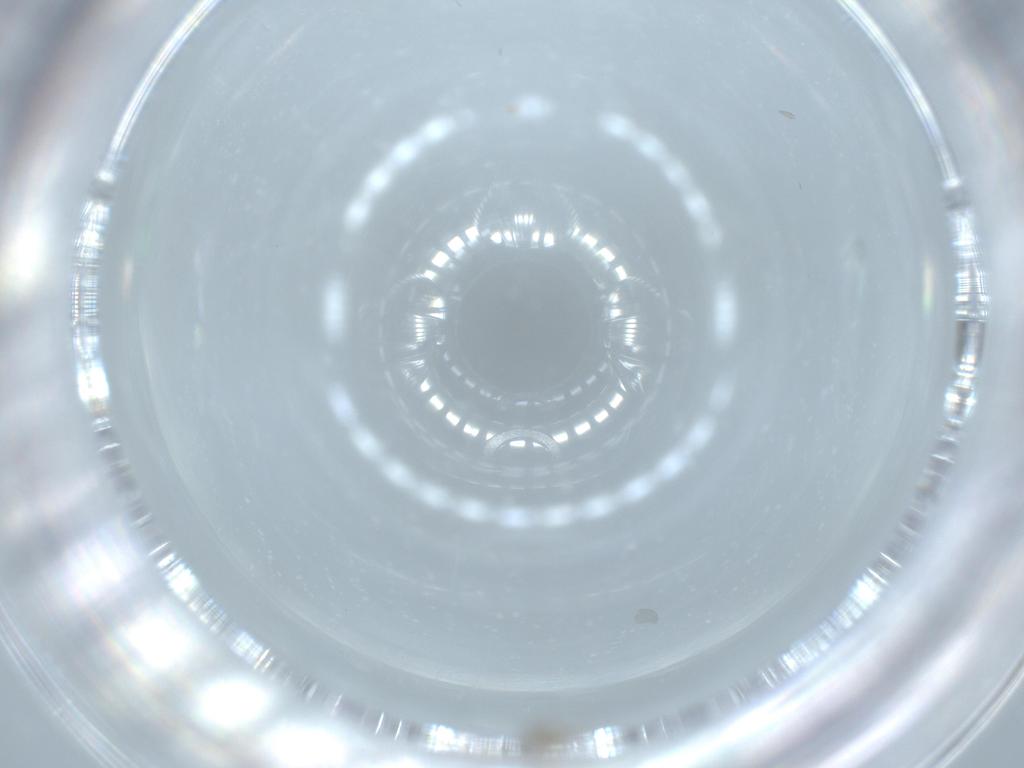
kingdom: Animalia
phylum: Arthropoda
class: Insecta
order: Diptera
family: Cecidomyiidae
